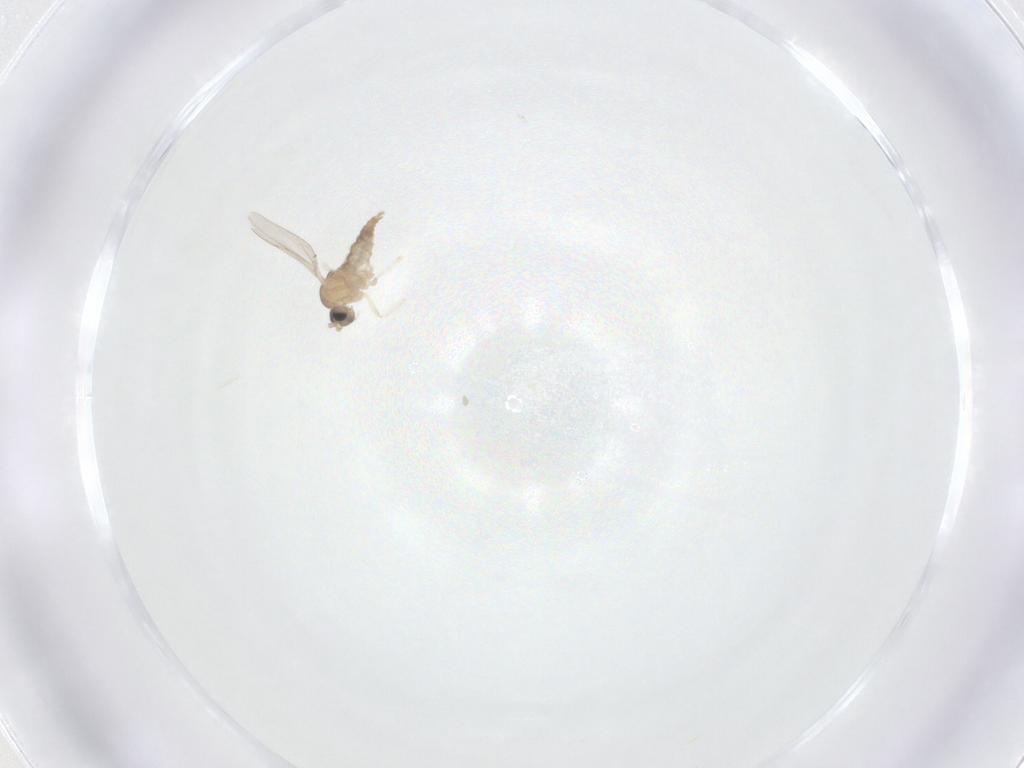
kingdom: Animalia
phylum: Arthropoda
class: Insecta
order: Diptera
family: Cecidomyiidae
